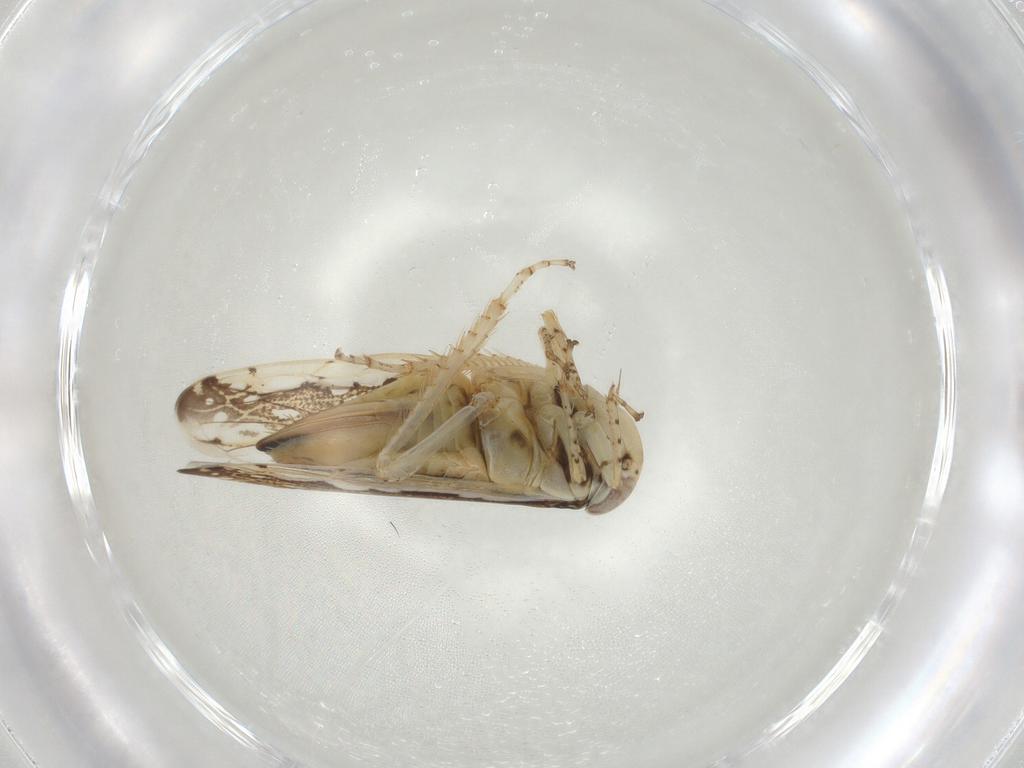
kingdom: Animalia
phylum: Arthropoda
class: Insecta
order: Hemiptera
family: Cicadellidae
